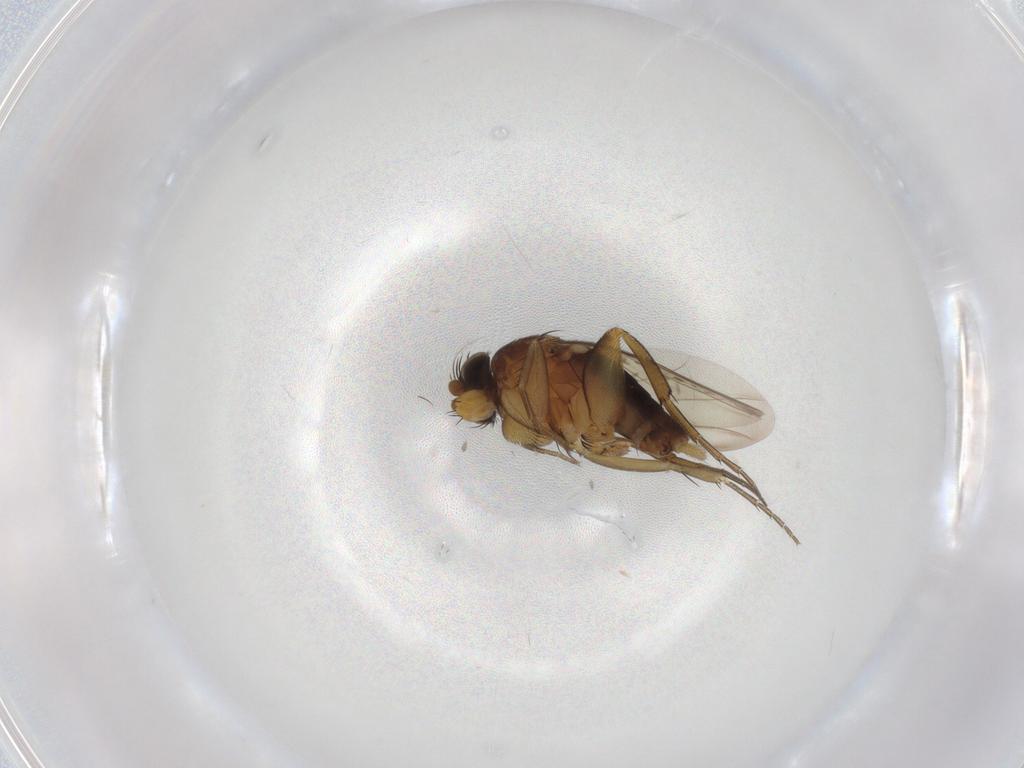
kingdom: Animalia
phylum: Arthropoda
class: Insecta
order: Diptera
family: Phoridae
